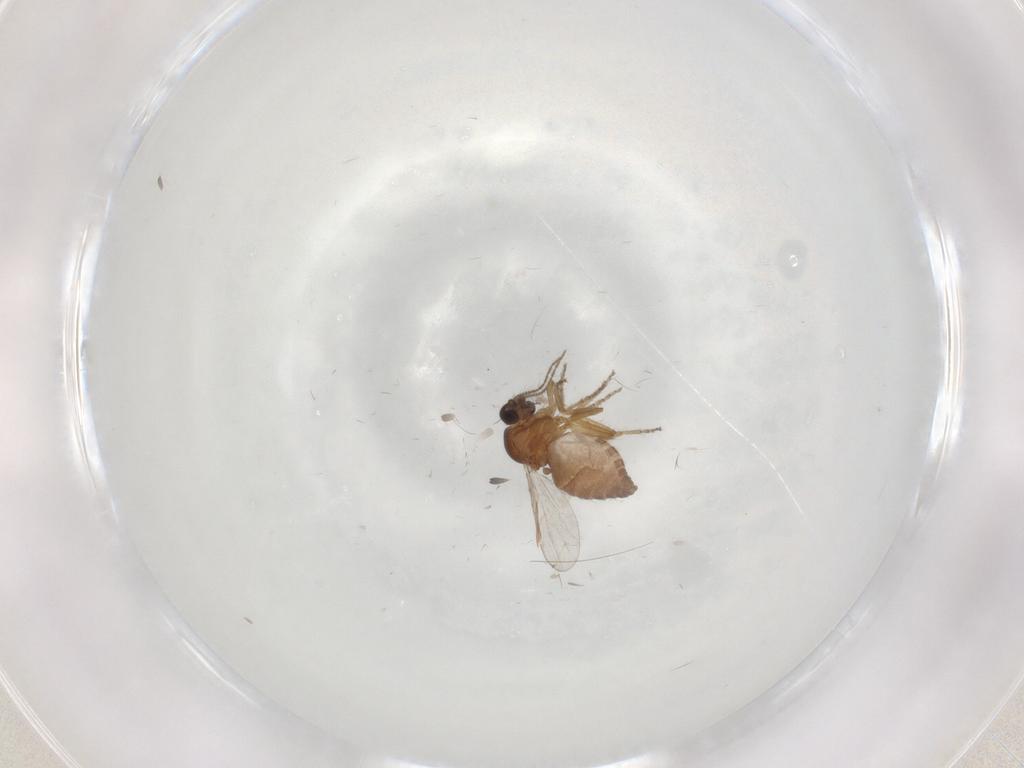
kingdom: Animalia
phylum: Arthropoda
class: Insecta
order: Diptera
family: Ceratopogonidae
